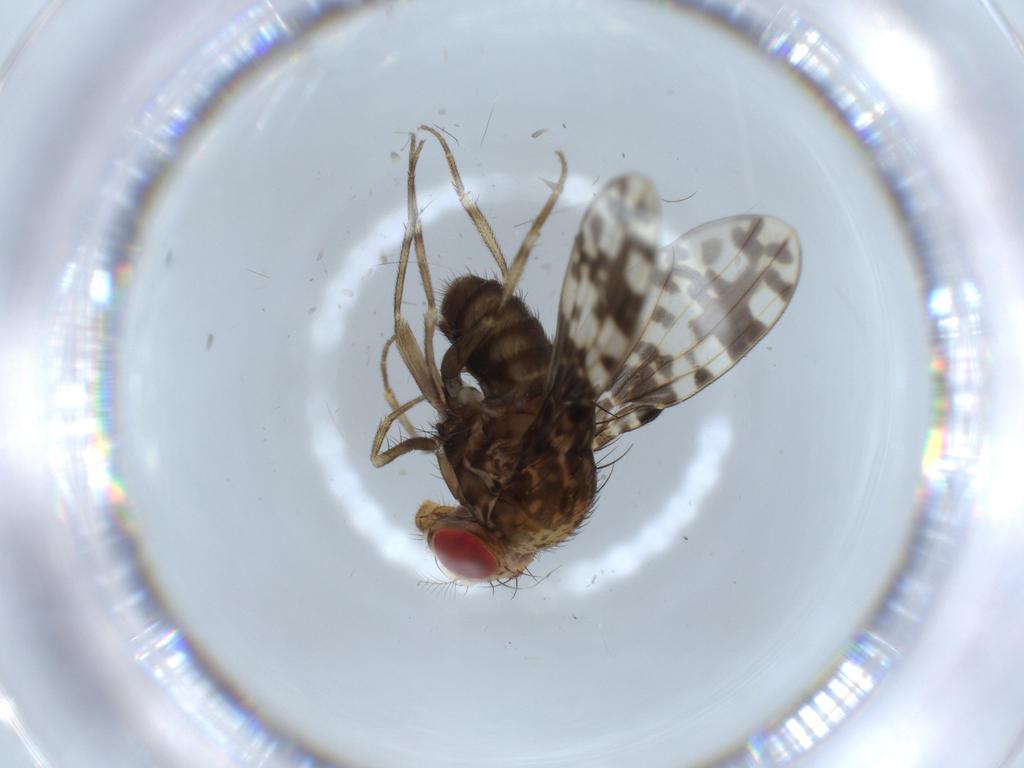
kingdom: Animalia
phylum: Arthropoda
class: Insecta
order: Diptera
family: Drosophilidae
